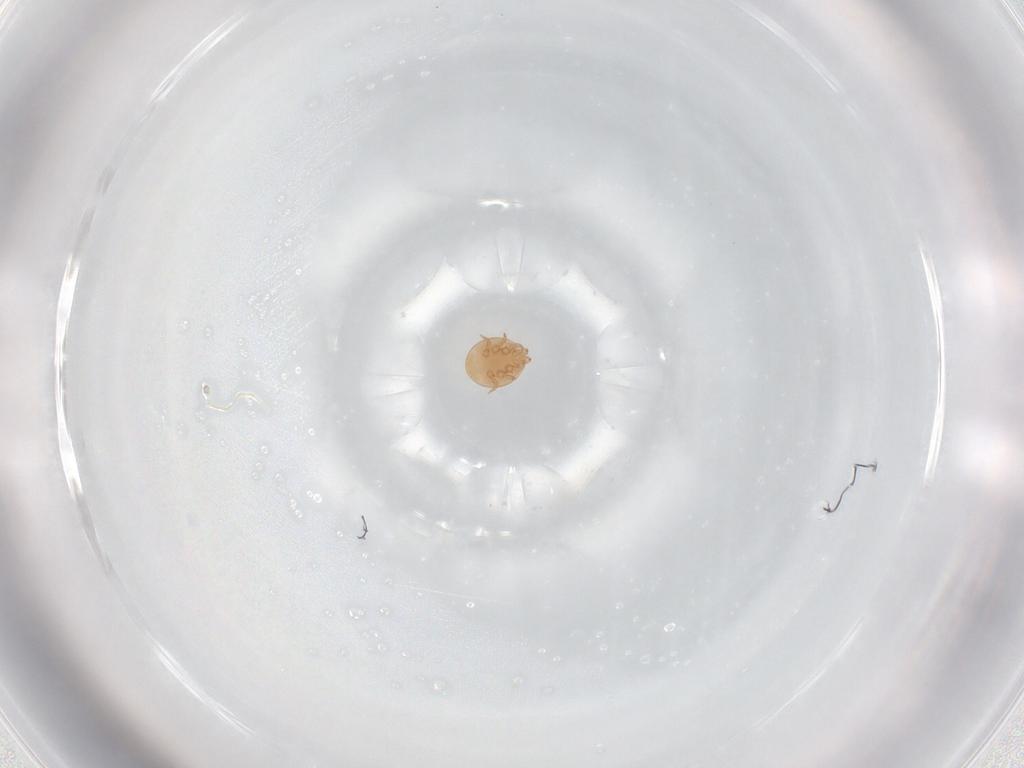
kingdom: Animalia
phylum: Arthropoda
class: Arachnida
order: Mesostigmata
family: Trematuridae
